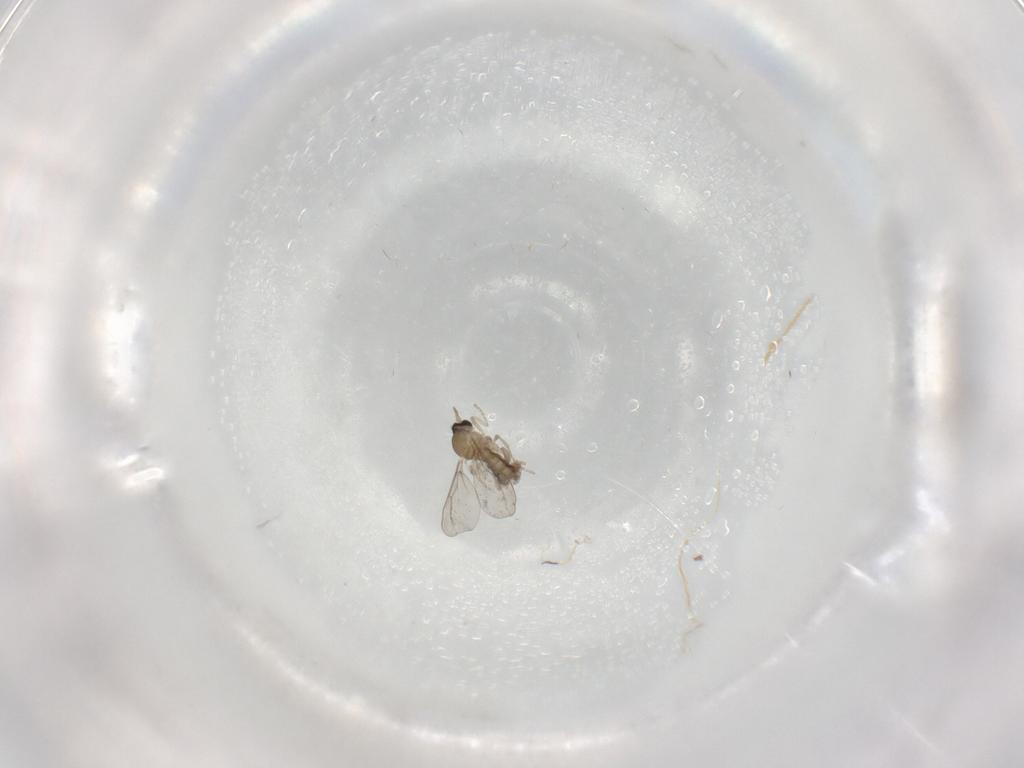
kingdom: Animalia
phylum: Arthropoda
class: Insecta
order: Diptera
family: Cecidomyiidae
